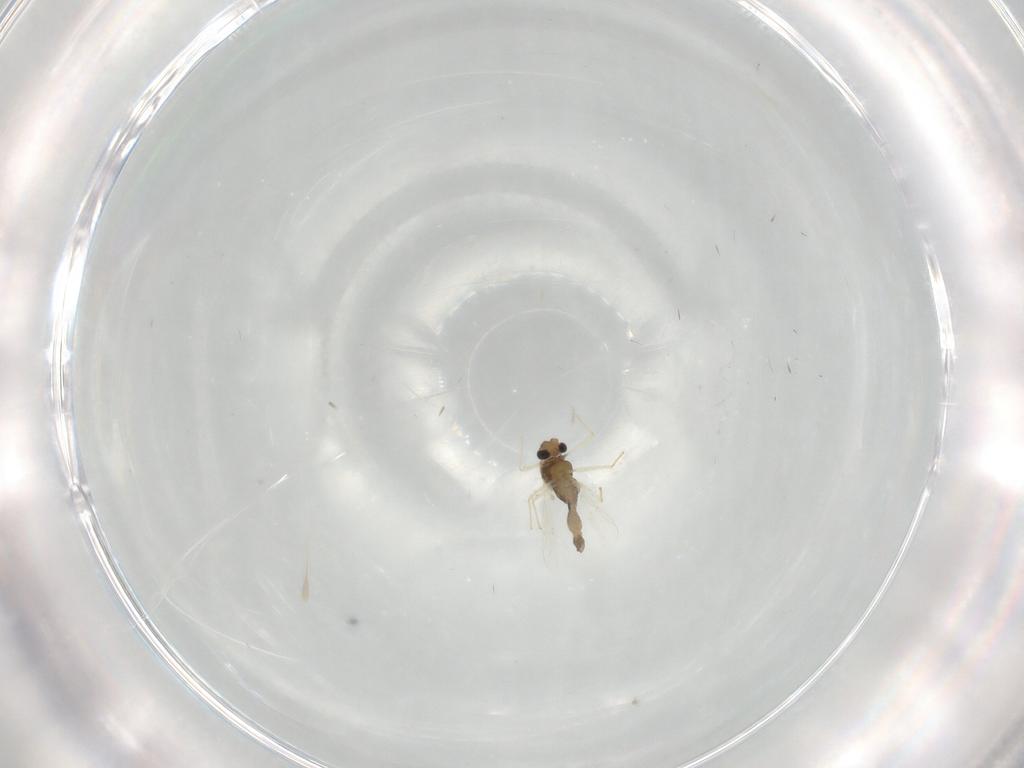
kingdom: Animalia
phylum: Arthropoda
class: Insecta
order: Diptera
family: Chironomidae
